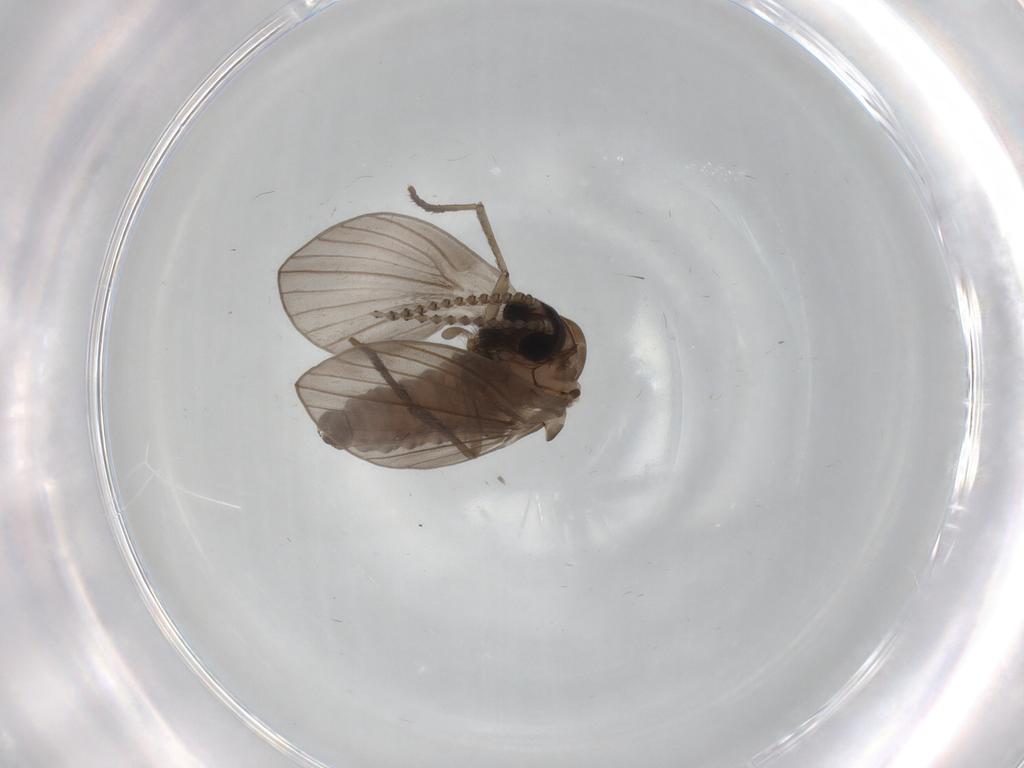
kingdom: Animalia
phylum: Arthropoda
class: Insecta
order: Diptera
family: Psychodidae
